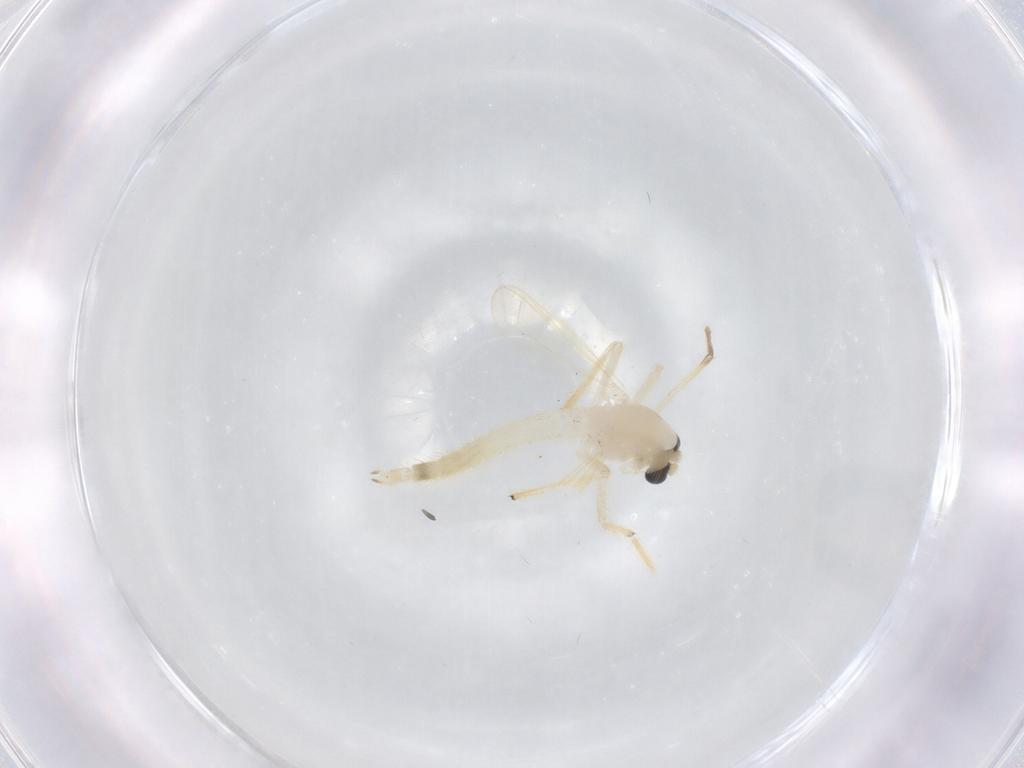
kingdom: Animalia
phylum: Arthropoda
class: Insecta
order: Diptera
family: Chironomidae
